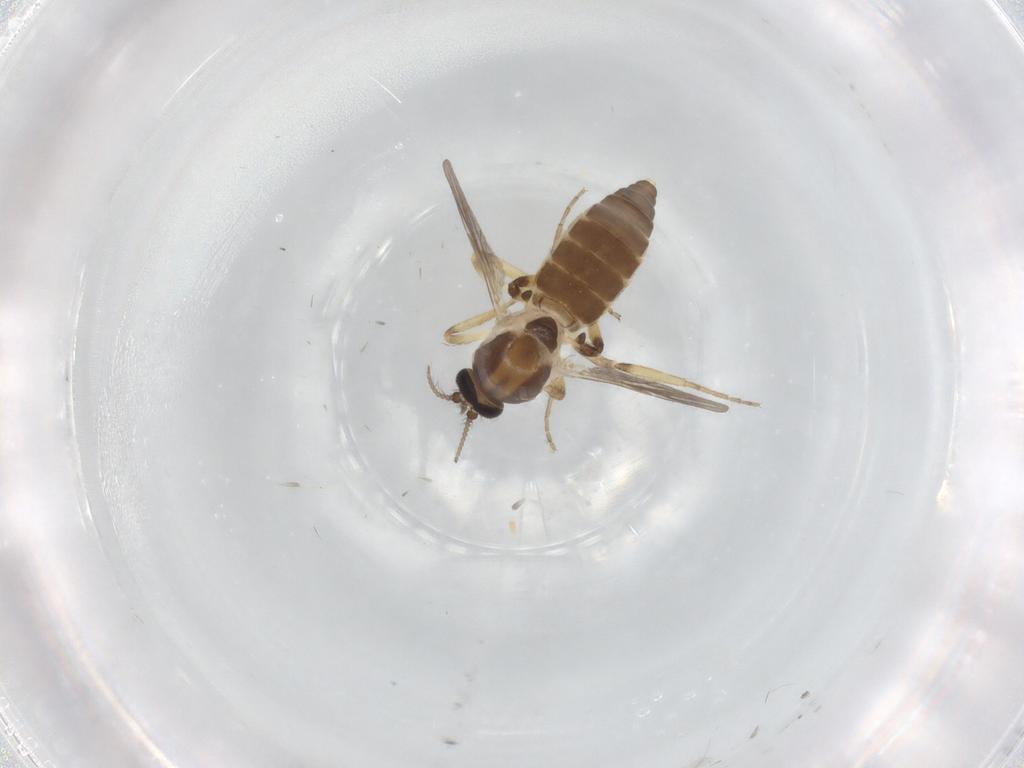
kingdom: Animalia
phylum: Arthropoda
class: Insecta
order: Diptera
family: Ceratopogonidae
